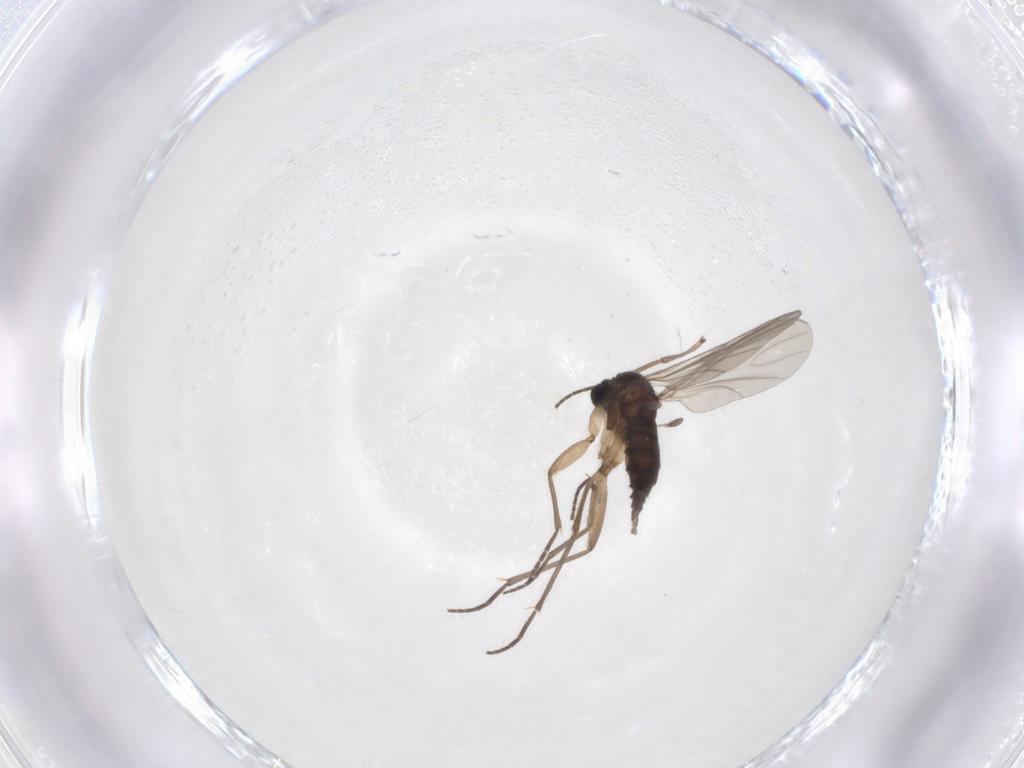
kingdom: Animalia
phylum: Arthropoda
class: Insecta
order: Diptera
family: Sciaridae
